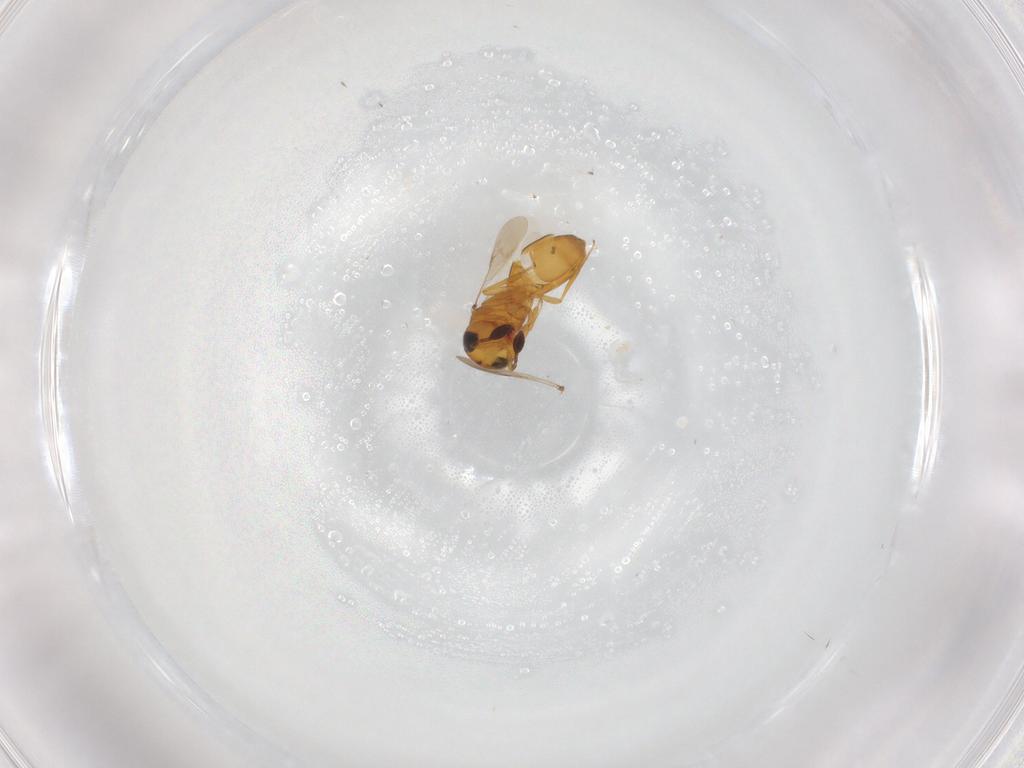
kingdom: Animalia
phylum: Arthropoda
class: Insecta
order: Hymenoptera
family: Scelionidae
